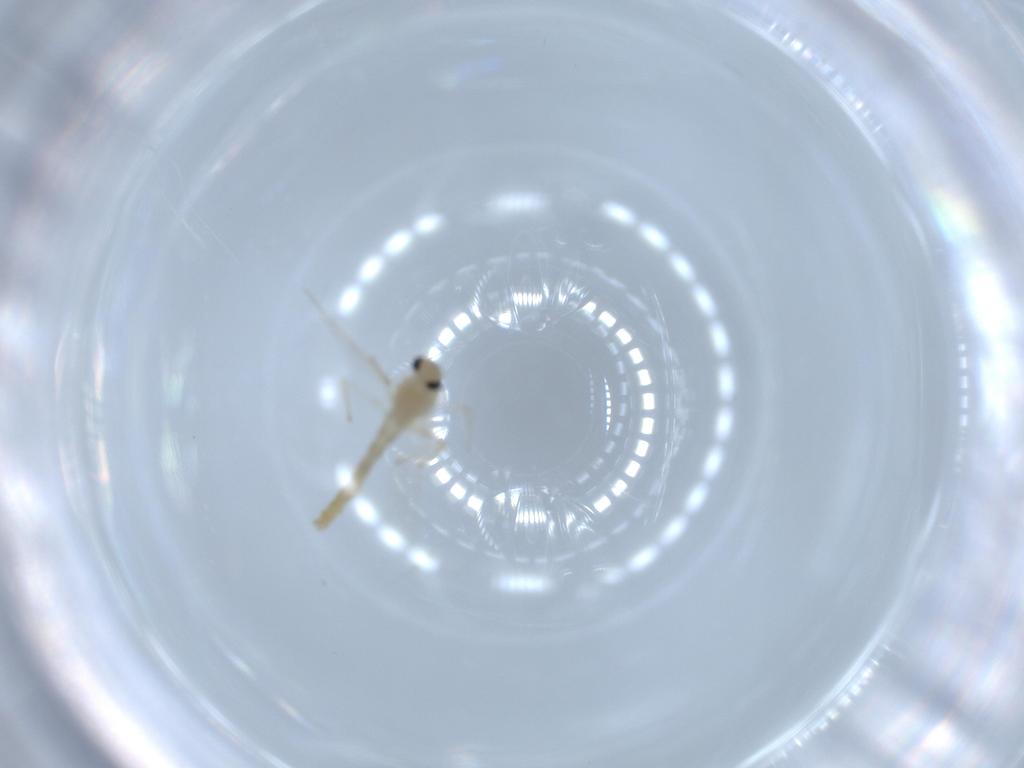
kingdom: Animalia
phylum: Arthropoda
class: Insecta
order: Diptera
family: Chironomidae
